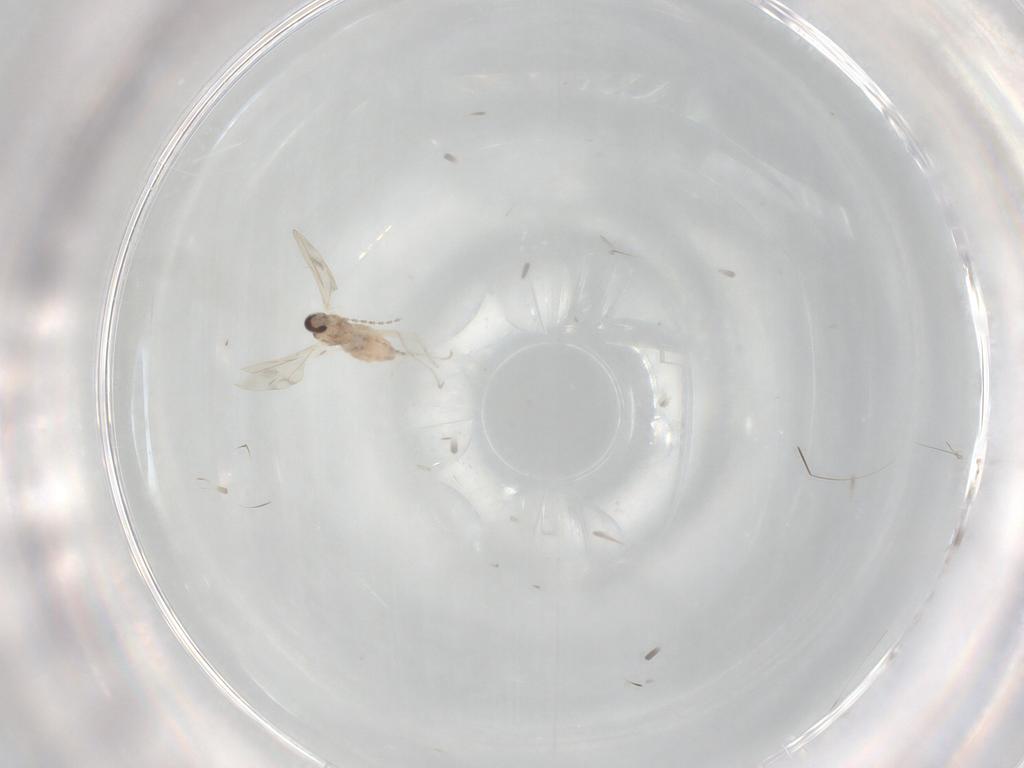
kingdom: Animalia
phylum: Arthropoda
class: Insecta
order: Diptera
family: Cecidomyiidae
